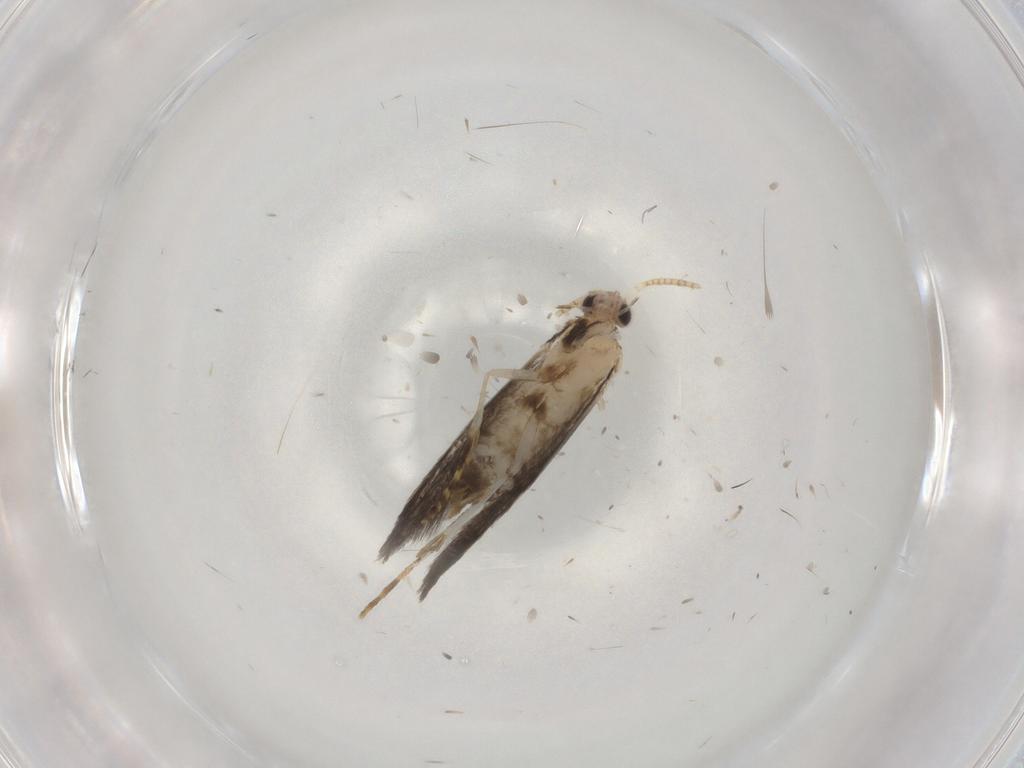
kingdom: Animalia
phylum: Arthropoda
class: Insecta
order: Lepidoptera
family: Tineidae
